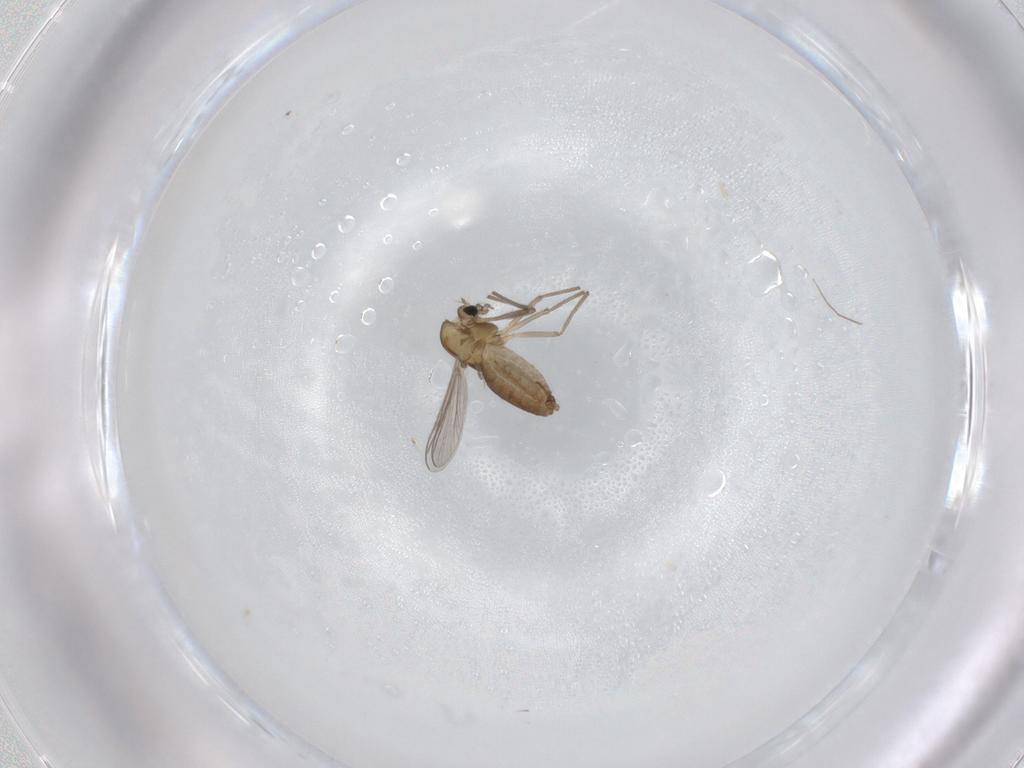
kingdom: Animalia
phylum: Arthropoda
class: Insecta
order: Diptera
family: Chironomidae
